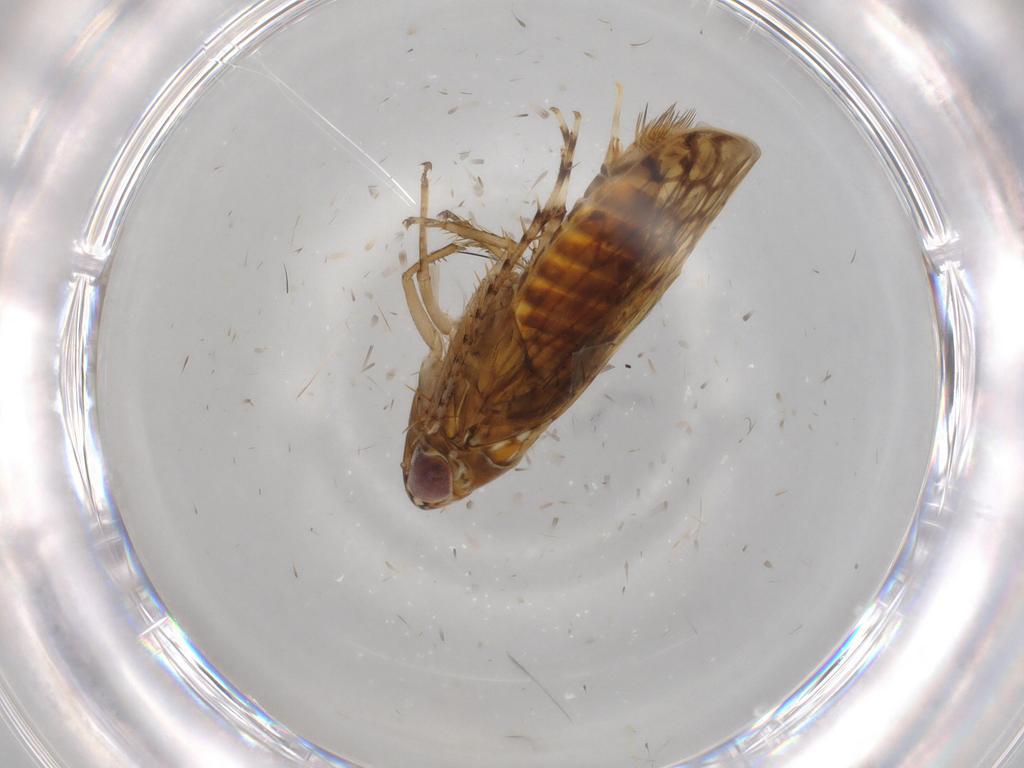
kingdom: Animalia
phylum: Arthropoda
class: Insecta
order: Hemiptera
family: Cicadellidae
